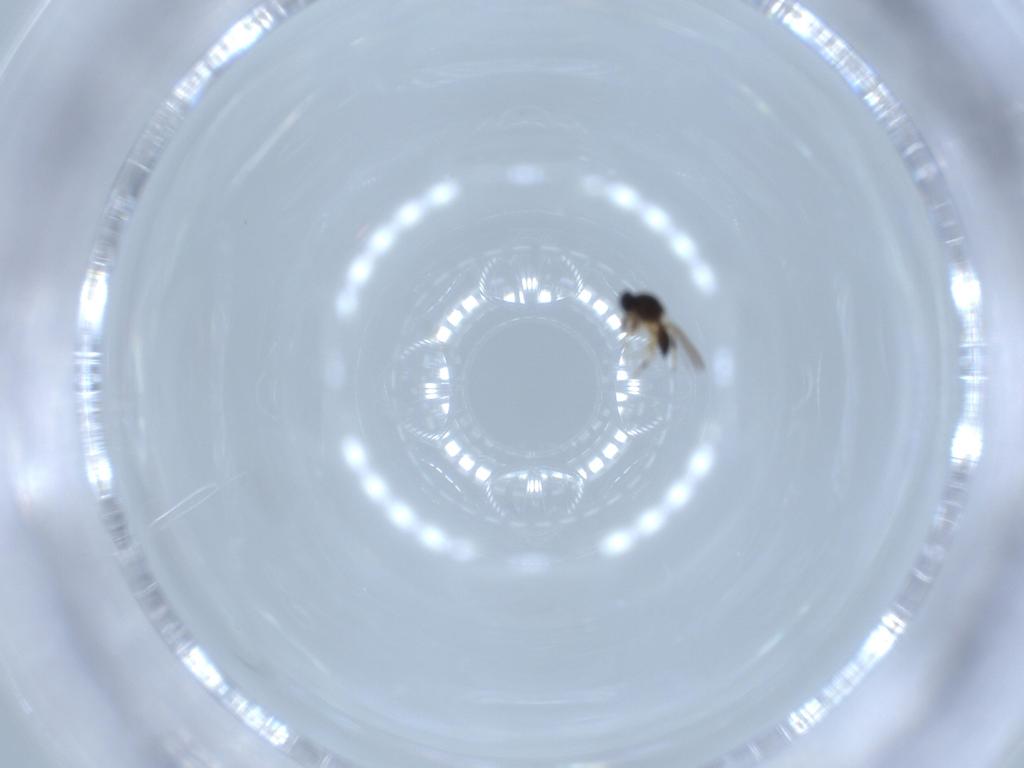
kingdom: Animalia
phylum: Arthropoda
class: Insecta
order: Hymenoptera
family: Platygastridae
